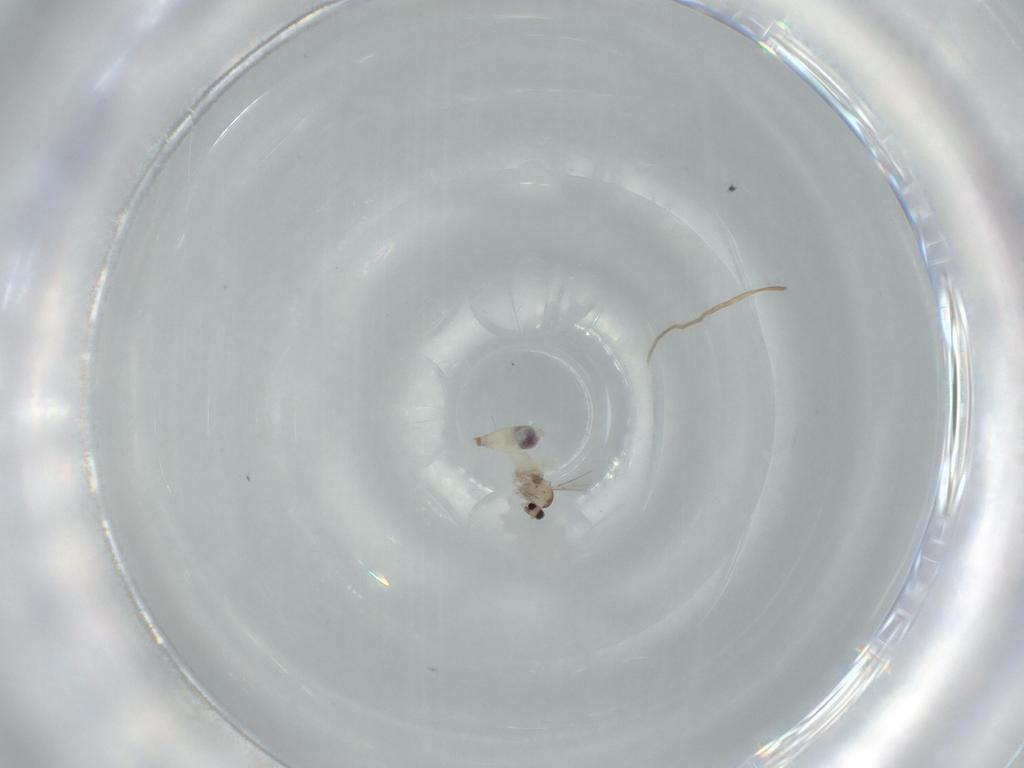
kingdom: Animalia
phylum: Arthropoda
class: Insecta
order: Diptera
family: Cecidomyiidae
